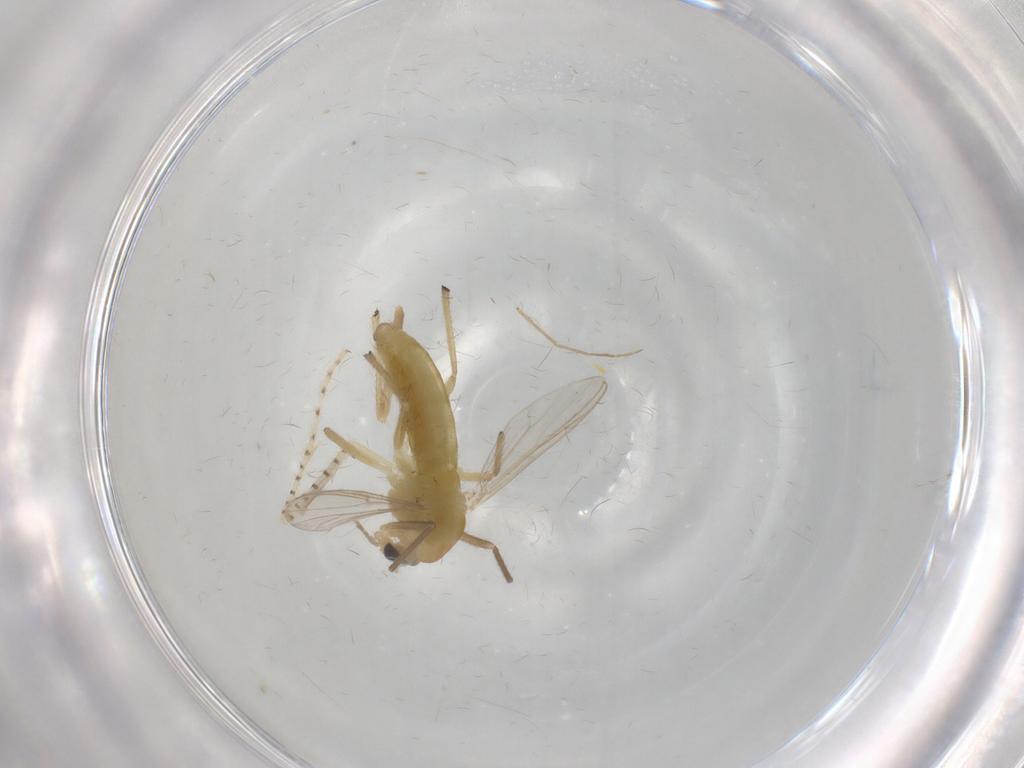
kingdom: Animalia
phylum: Arthropoda
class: Insecta
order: Diptera
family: Chironomidae
